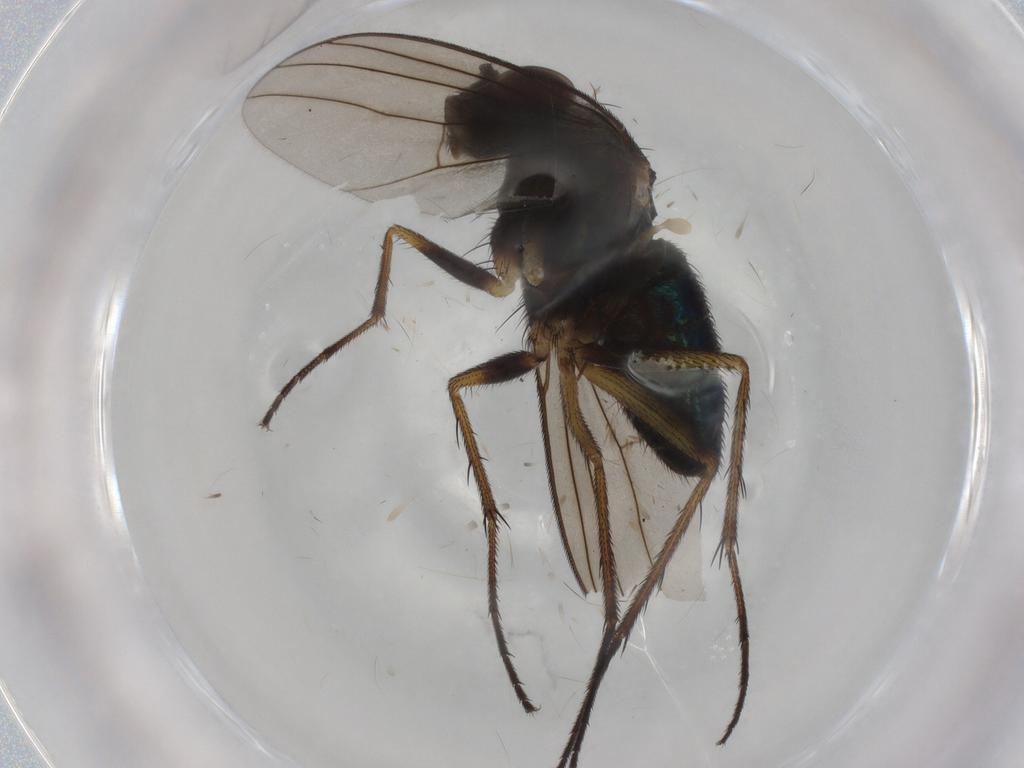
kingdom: Animalia
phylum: Arthropoda
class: Insecta
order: Diptera
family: Dolichopodidae
